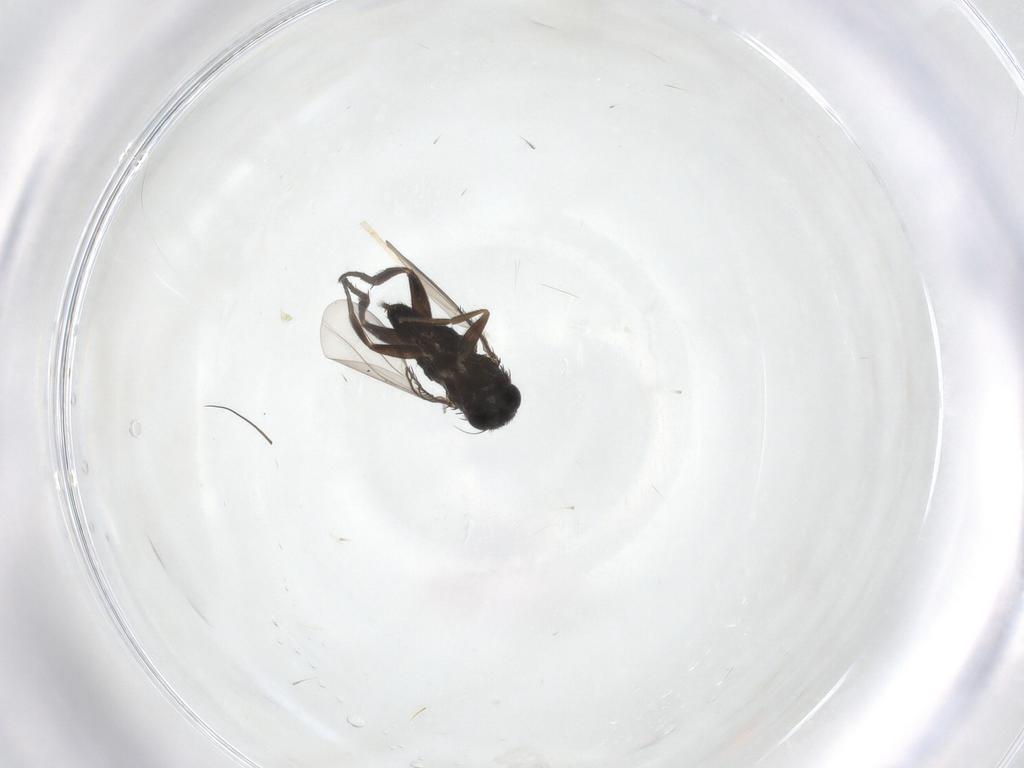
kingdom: Animalia
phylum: Arthropoda
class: Insecta
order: Diptera
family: Phoridae
